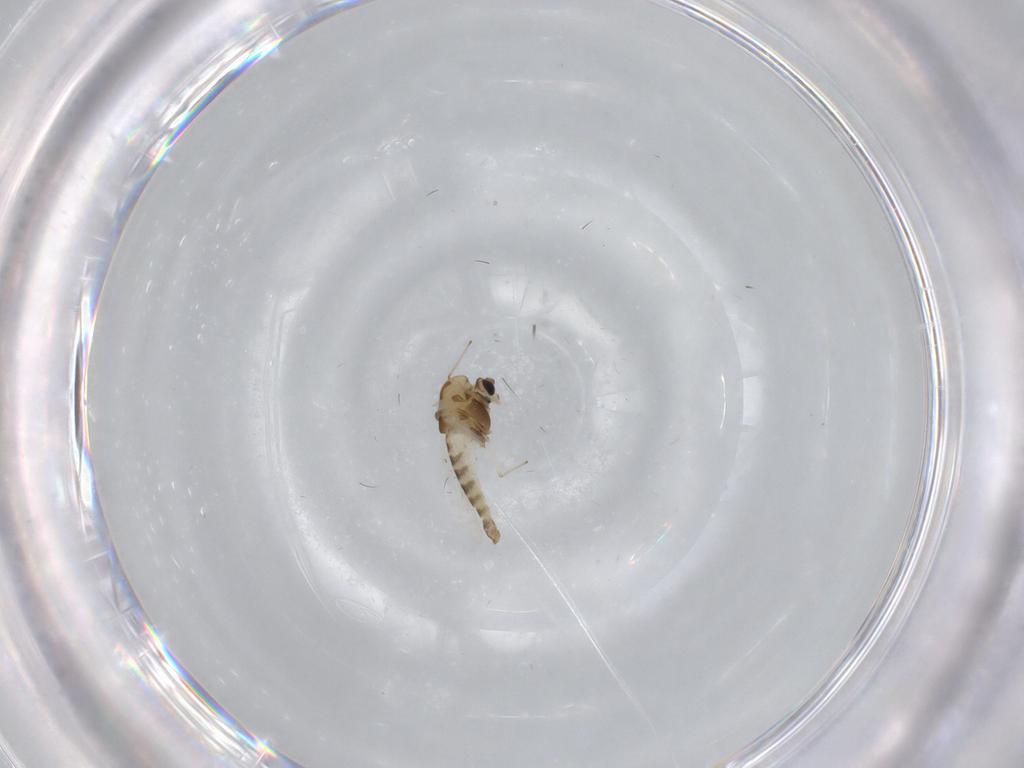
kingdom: Animalia
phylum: Arthropoda
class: Insecta
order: Diptera
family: Chironomidae
